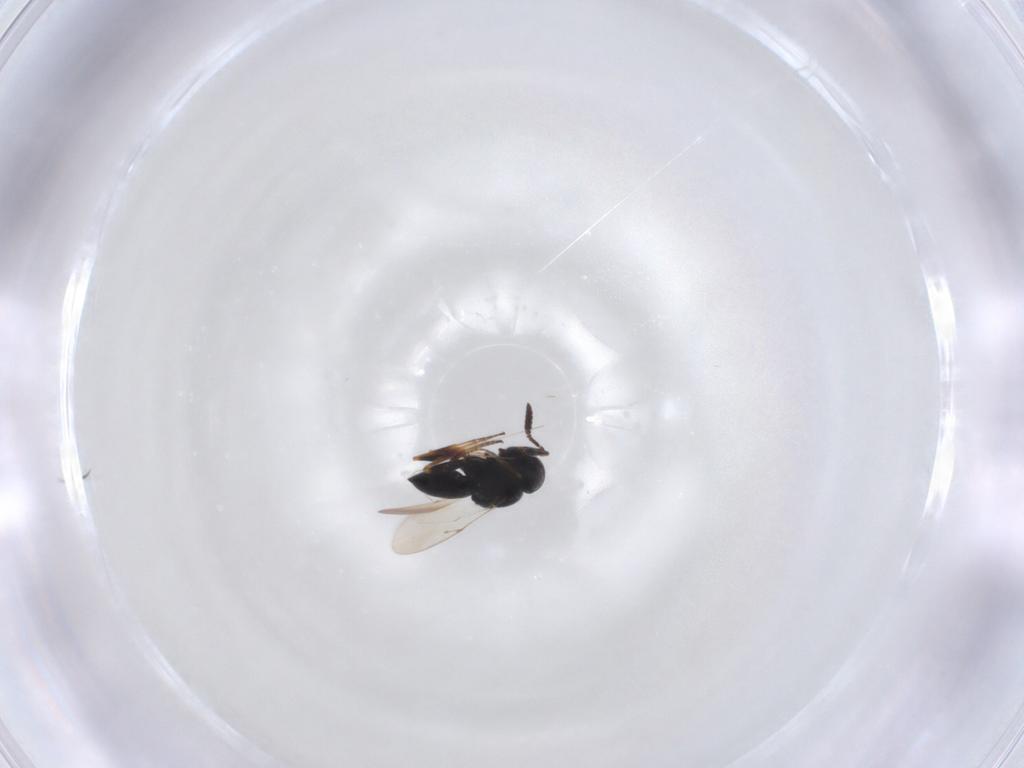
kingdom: Animalia
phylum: Arthropoda
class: Insecta
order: Hymenoptera
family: Scelionidae
